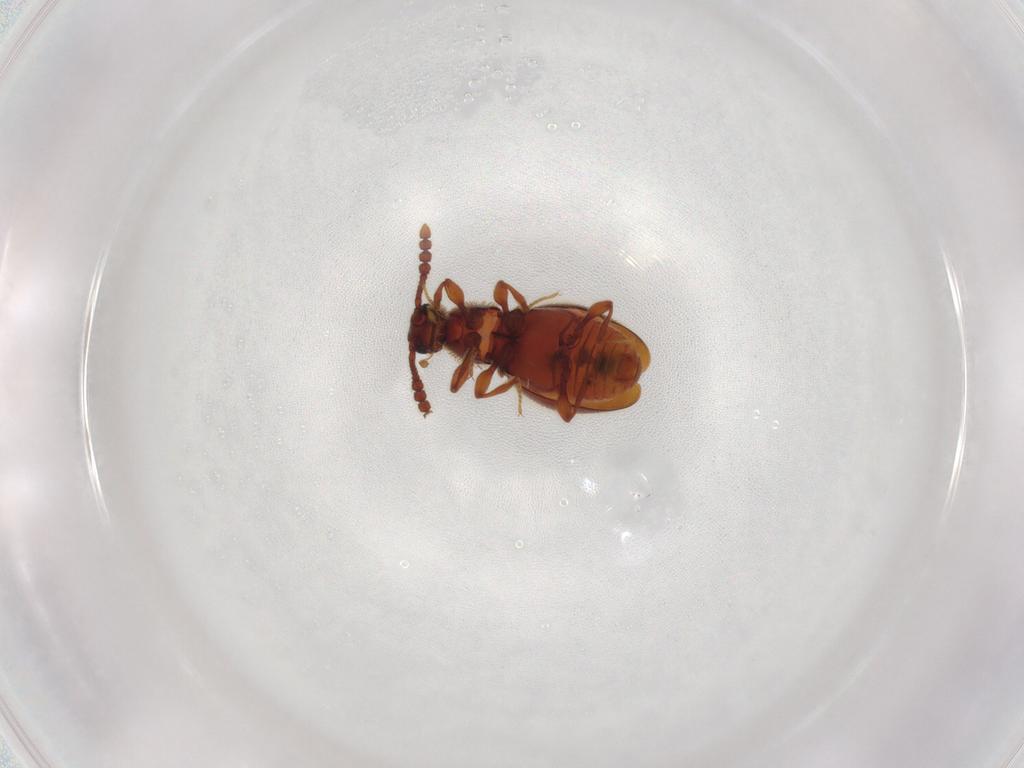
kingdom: Animalia
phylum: Arthropoda
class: Insecta
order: Coleoptera
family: Staphylinidae
